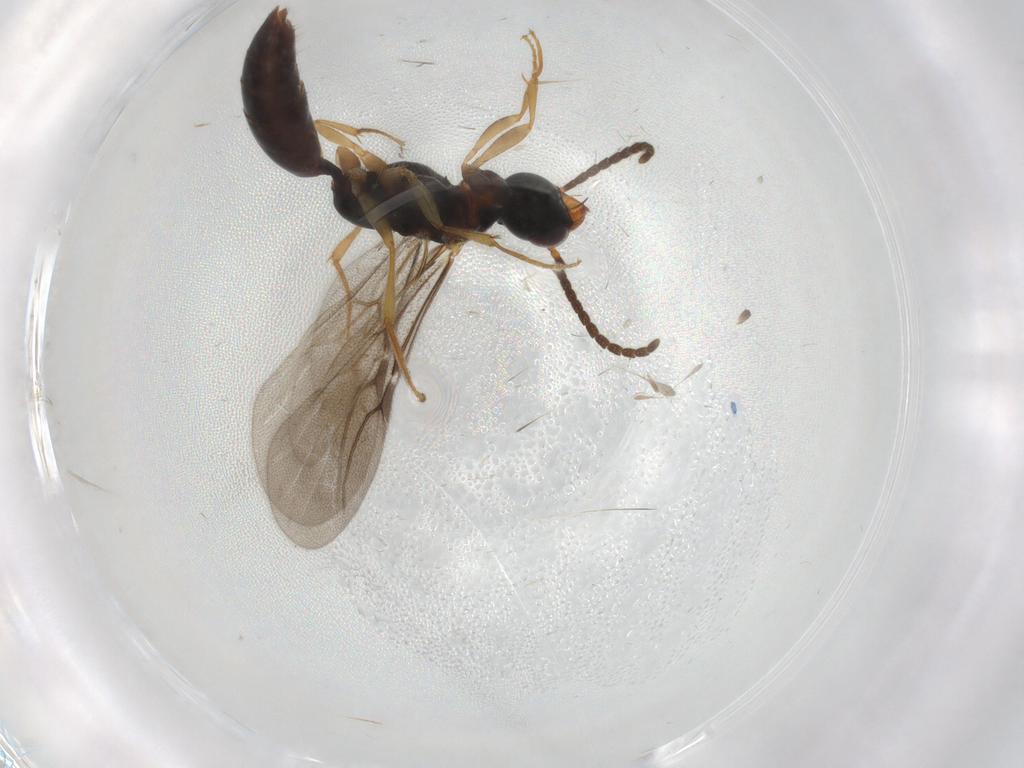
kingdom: Animalia
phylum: Arthropoda
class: Insecta
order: Hymenoptera
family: Bethylidae
